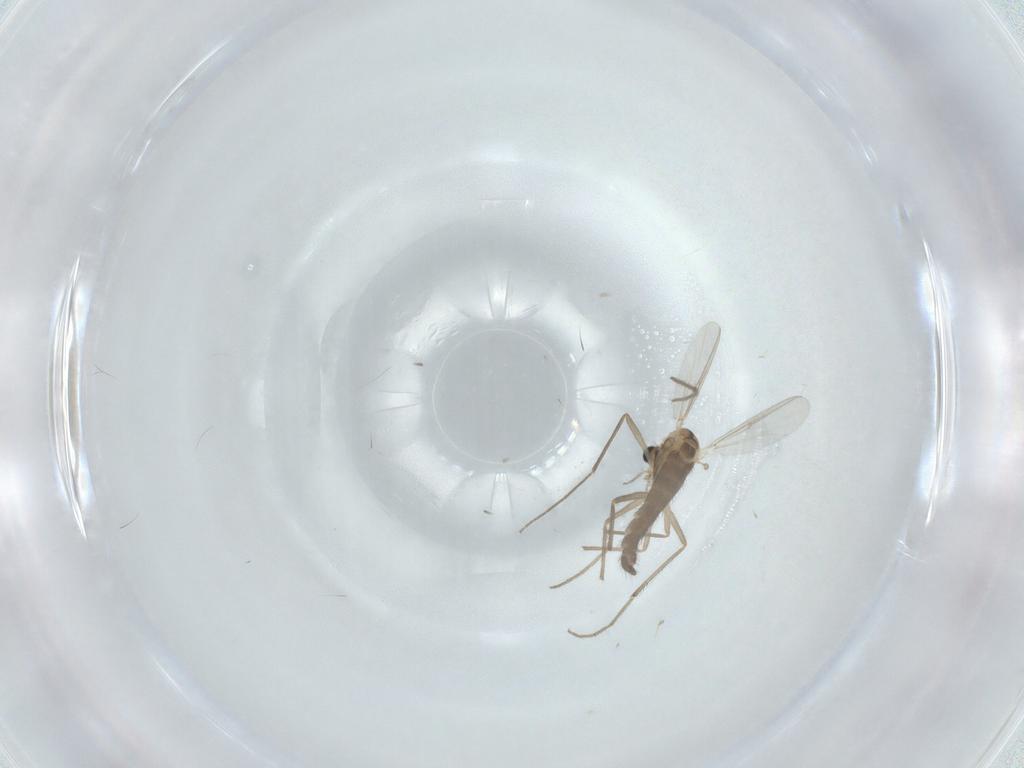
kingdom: Animalia
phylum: Arthropoda
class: Insecta
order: Diptera
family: Chironomidae
